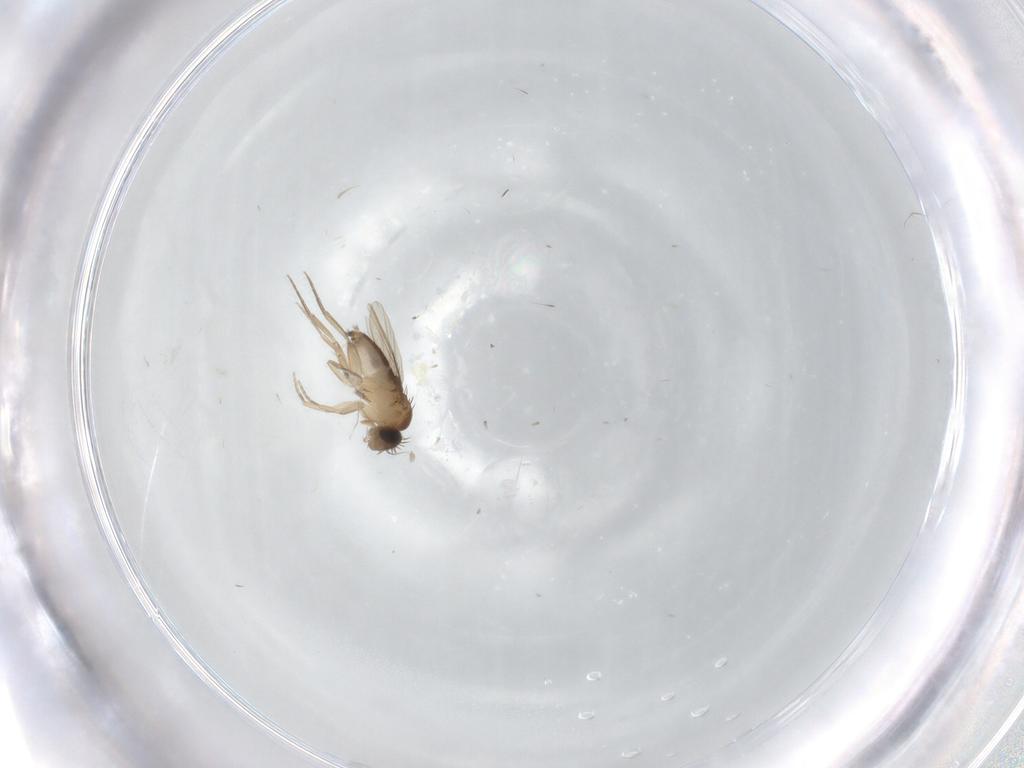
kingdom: Animalia
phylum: Arthropoda
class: Insecta
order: Diptera
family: Phoridae
